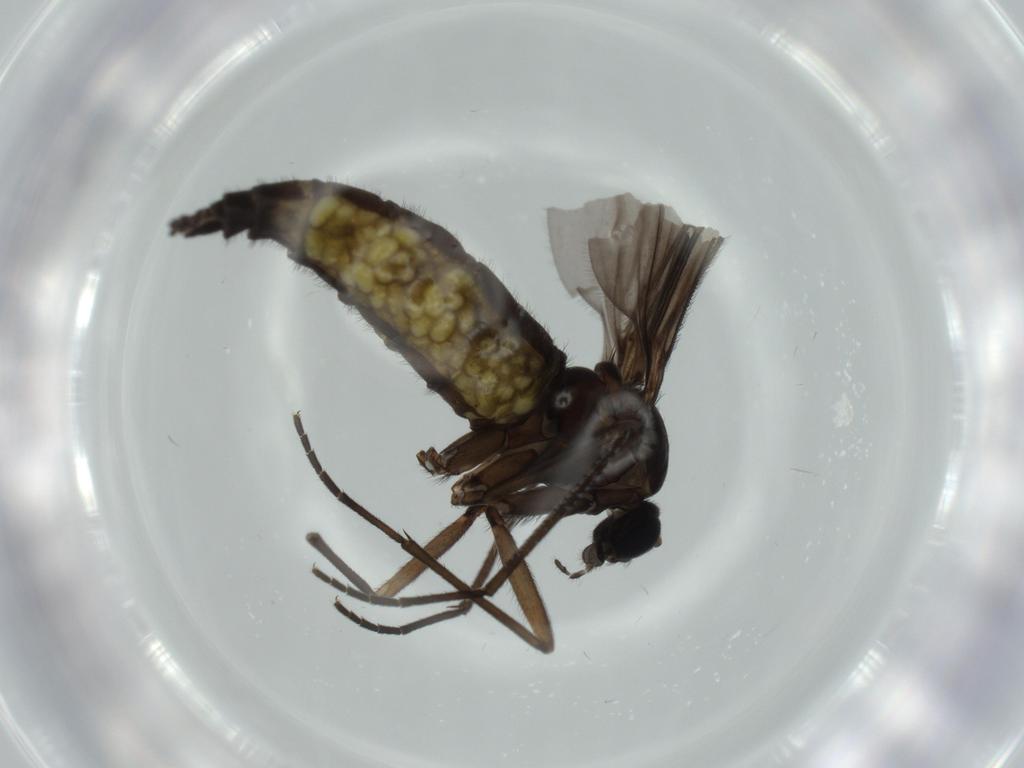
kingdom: Animalia
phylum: Arthropoda
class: Insecta
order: Diptera
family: Sciaridae
